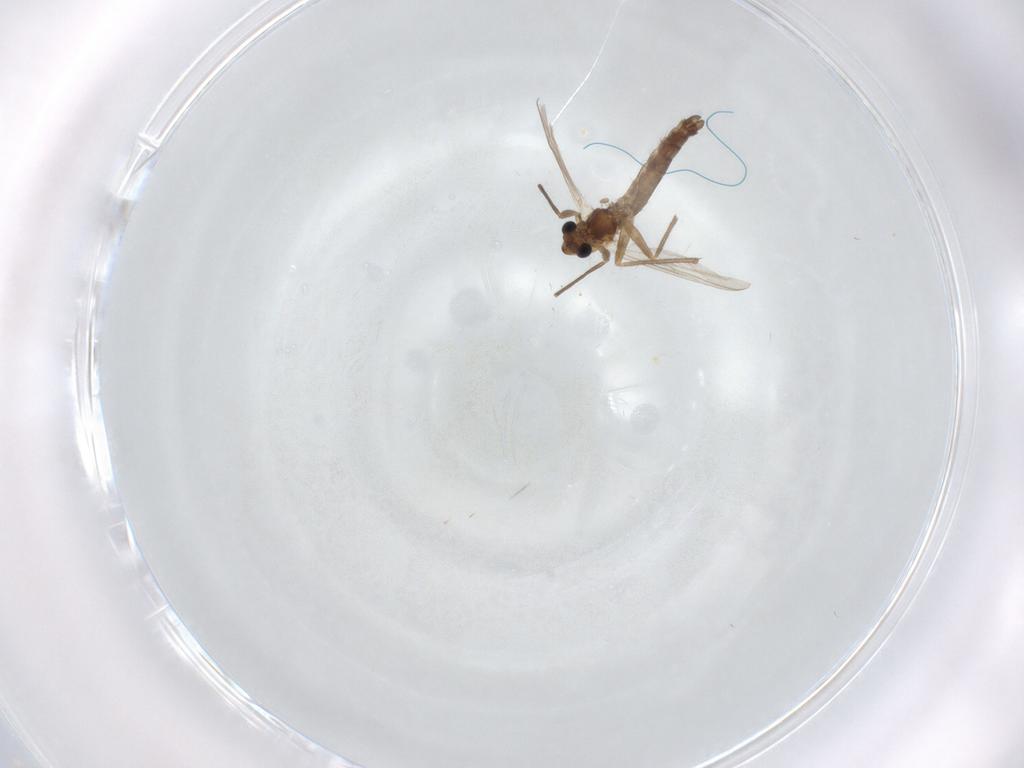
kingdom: Animalia
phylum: Arthropoda
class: Insecta
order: Diptera
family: Chironomidae
